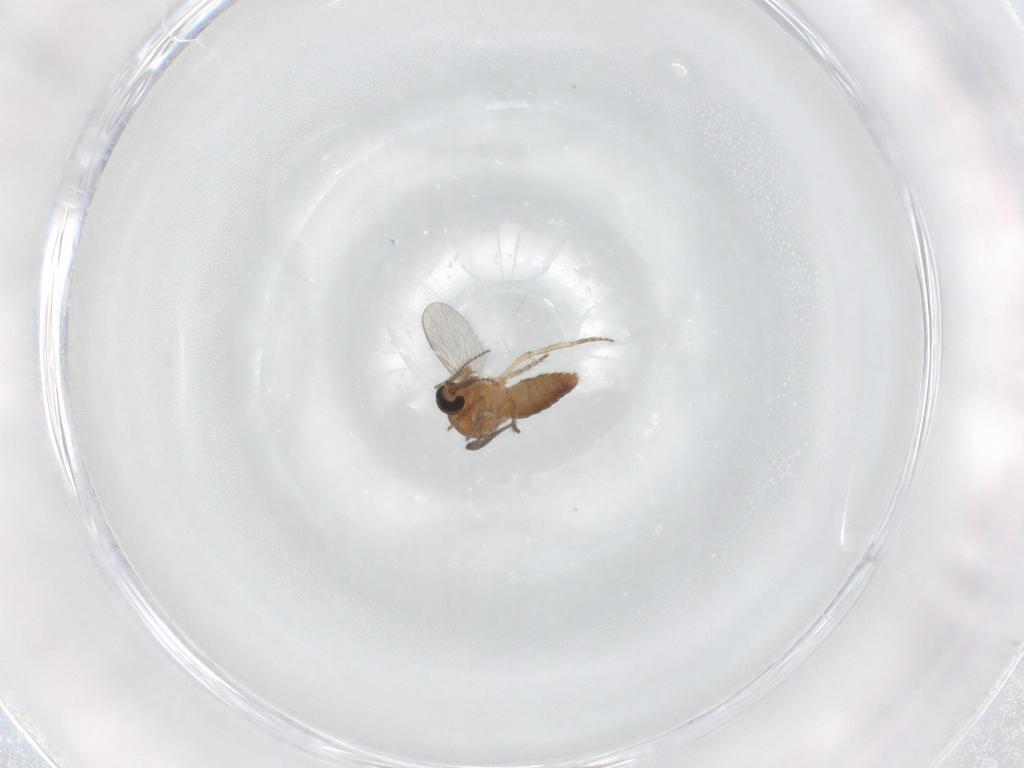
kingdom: Animalia
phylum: Arthropoda
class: Insecta
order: Diptera
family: Ceratopogonidae
